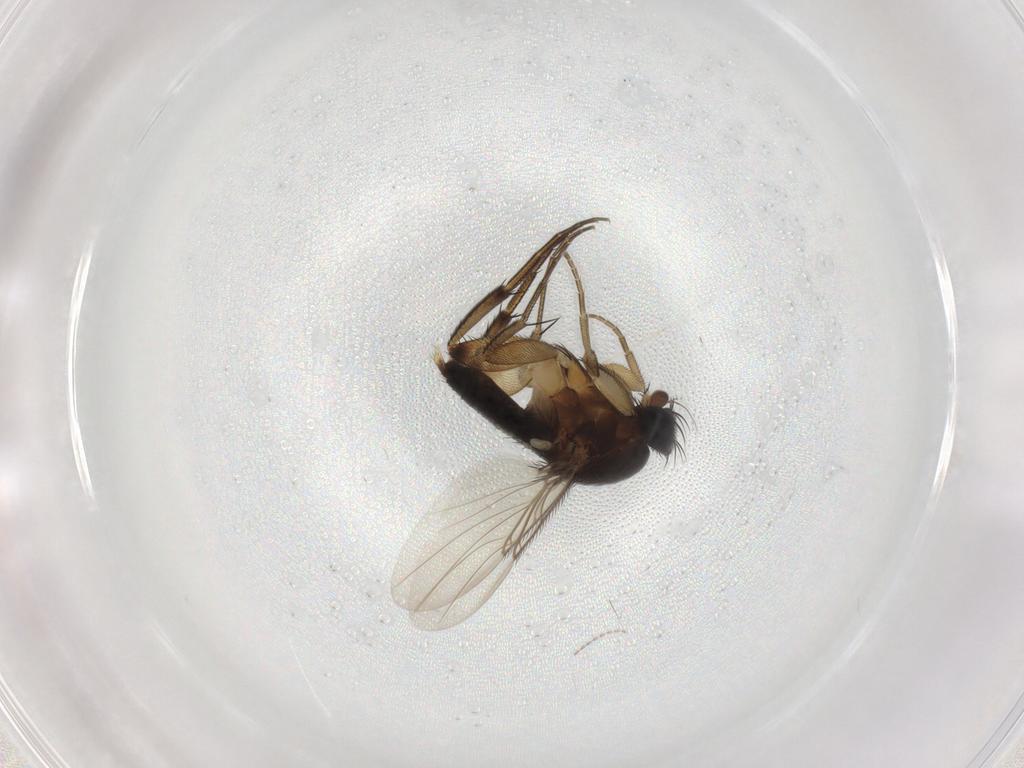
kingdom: Animalia
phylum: Arthropoda
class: Insecta
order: Diptera
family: Phoridae
